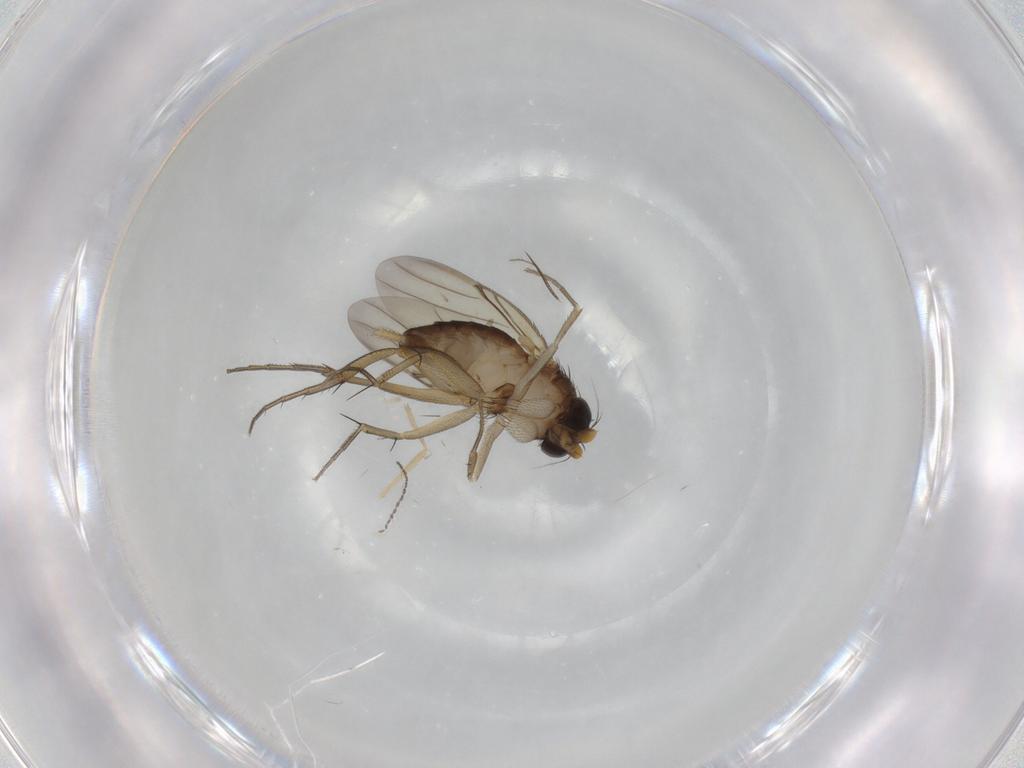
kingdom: Animalia
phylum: Arthropoda
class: Insecta
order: Diptera
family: Phoridae
